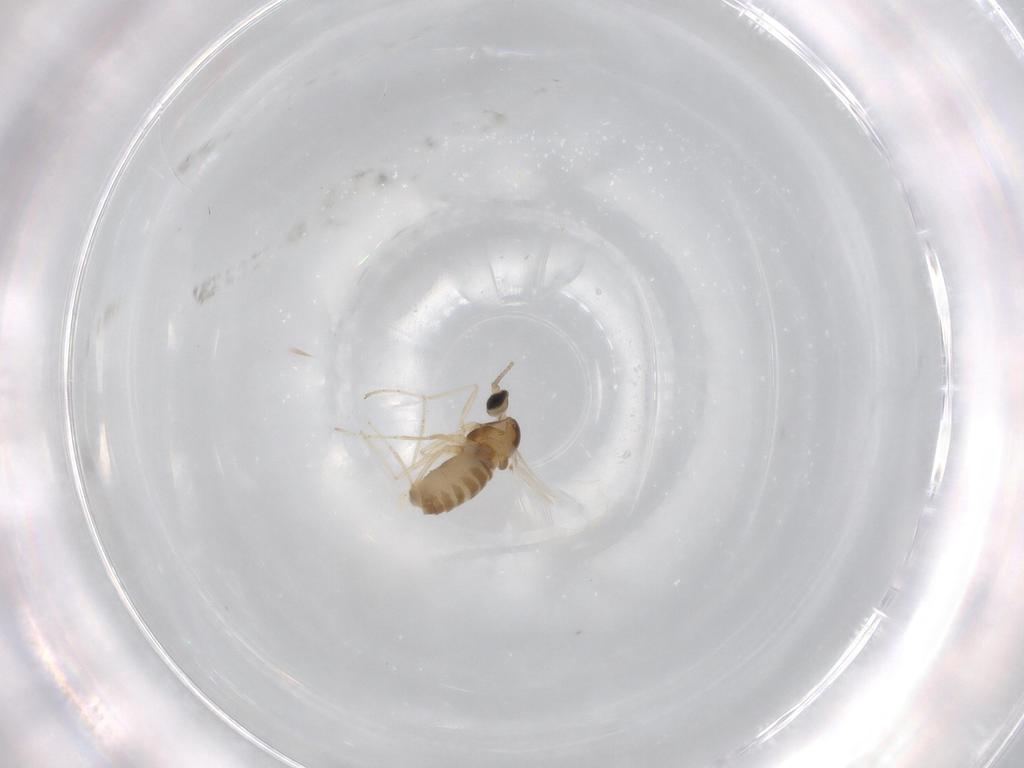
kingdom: Animalia
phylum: Arthropoda
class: Insecta
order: Diptera
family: Cecidomyiidae
